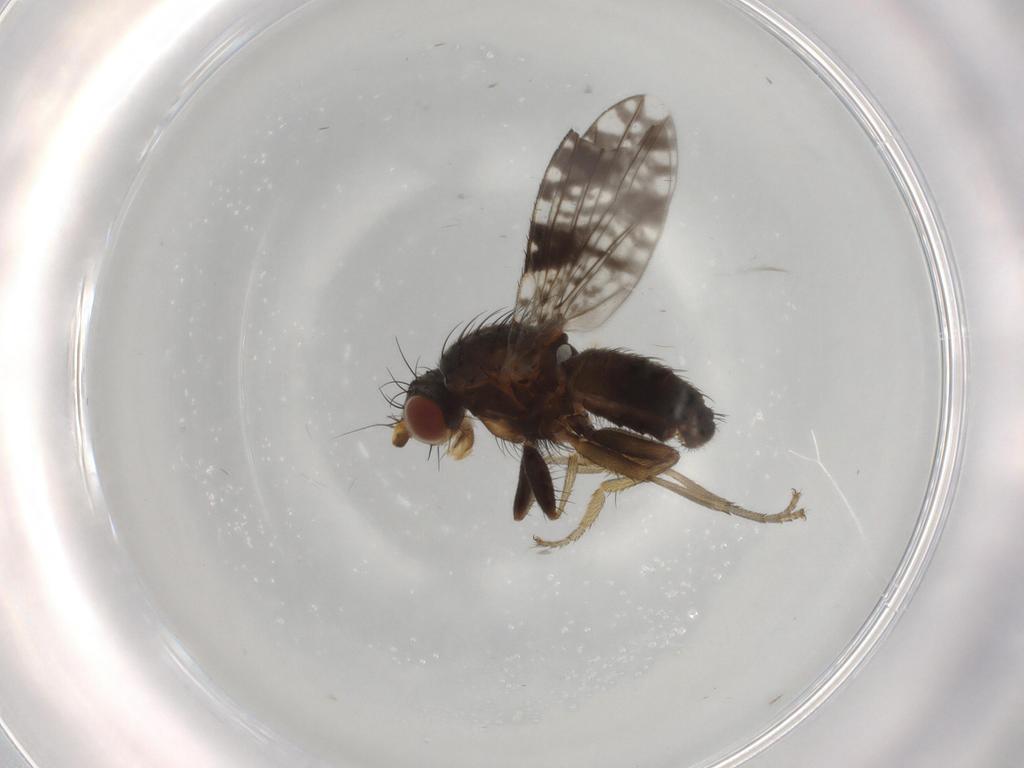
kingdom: Animalia
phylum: Arthropoda
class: Insecta
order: Diptera
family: Tephritidae
